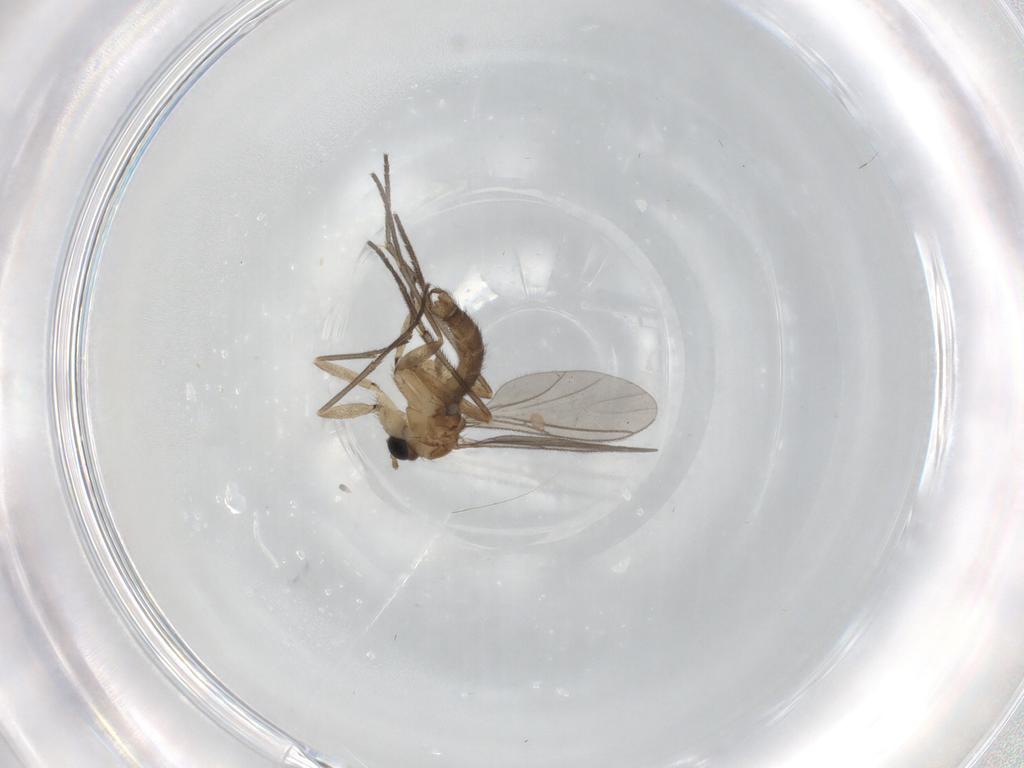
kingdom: Animalia
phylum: Arthropoda
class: Insecta
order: Diptera
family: Sciaridae
